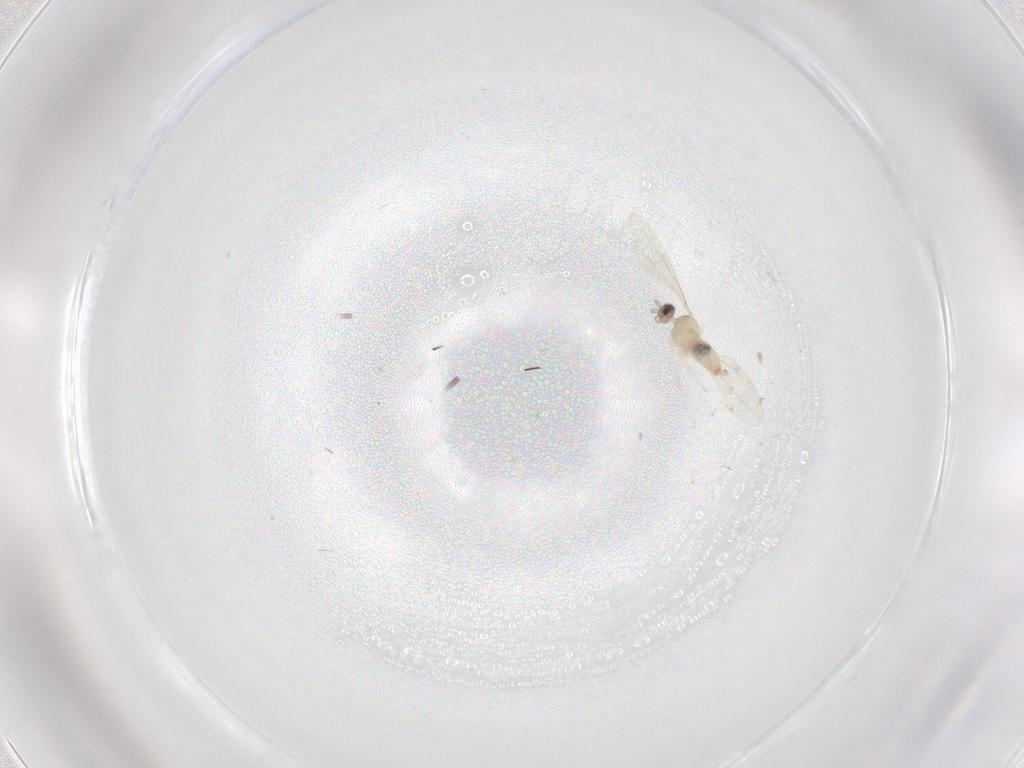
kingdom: Animalia
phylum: Arthropoda
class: Insecta
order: Diptera
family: Cecidomyiidae
